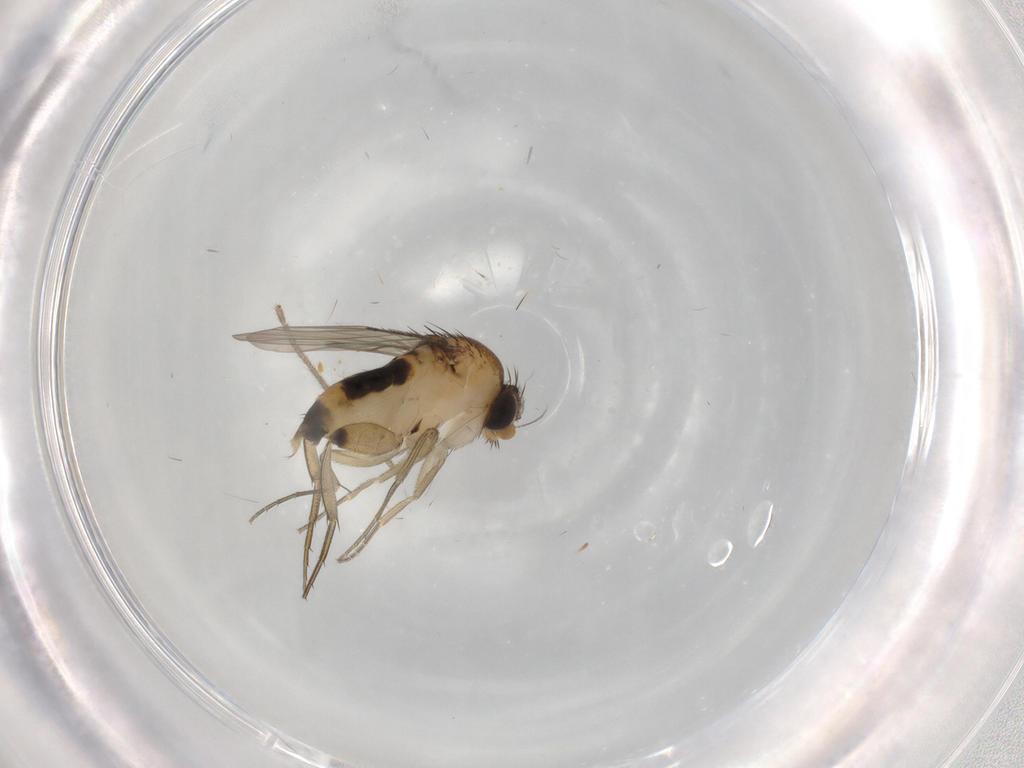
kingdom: Animalia
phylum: Arthropoda
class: Insecta
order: Diptera
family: Phoridae
